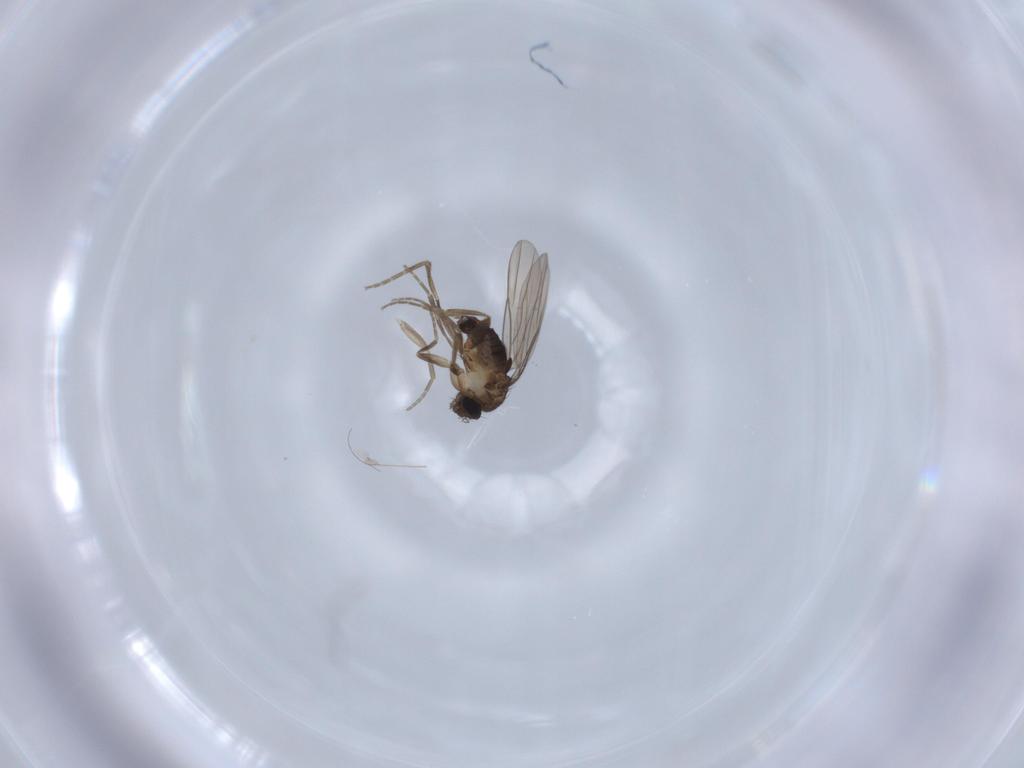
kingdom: Animalia
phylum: Arthropoda
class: Insecta
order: Diptera
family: Phoridae
